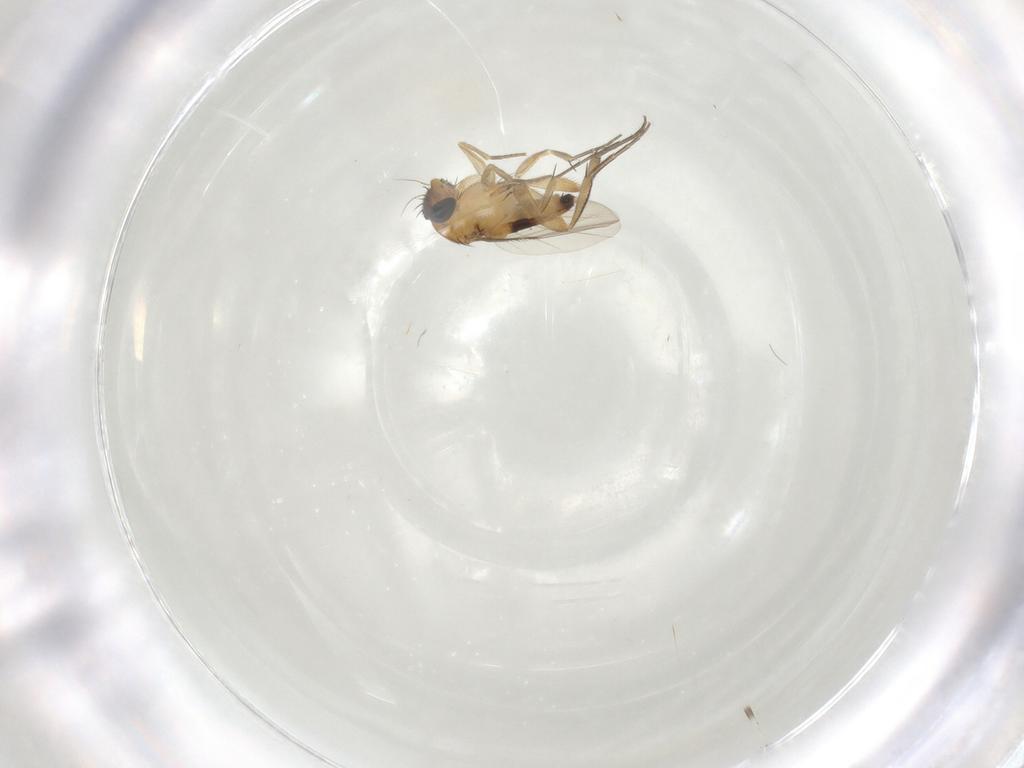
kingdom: Animalia
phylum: Arthropoda
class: Insecta
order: Diptera
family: Phoridae
